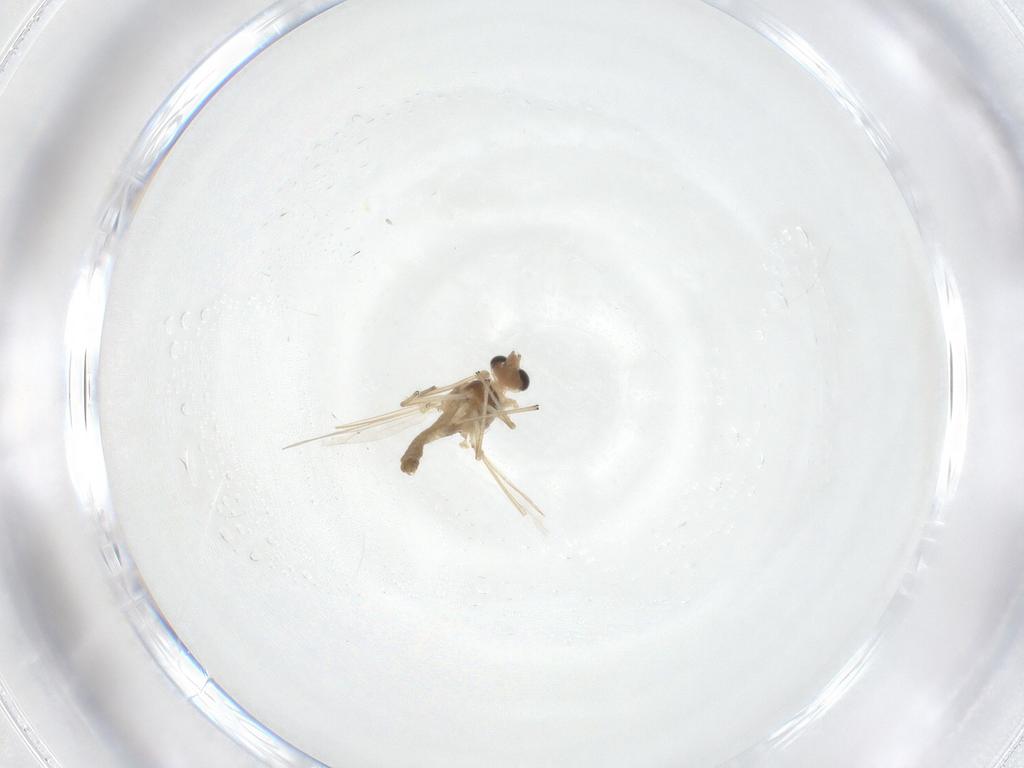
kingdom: Animalia
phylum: Arthropoda
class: Insecta
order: Diptera
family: Chironomidae
